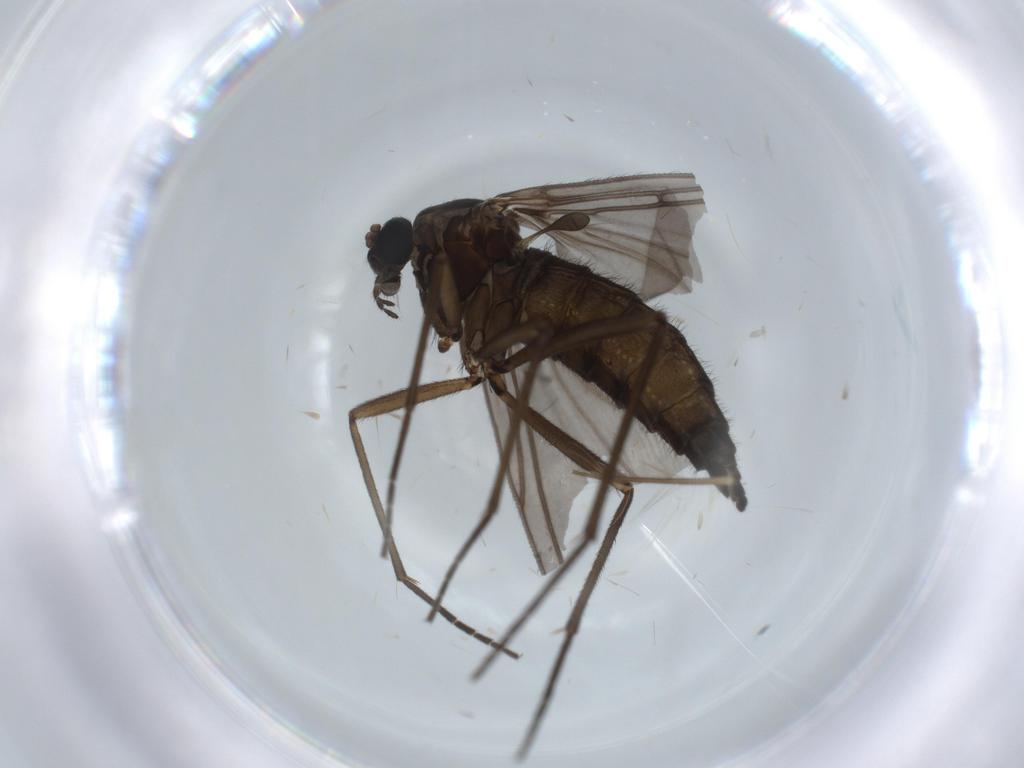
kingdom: Animalia
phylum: Arthropoda
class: Insecta
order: Diptera
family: Sciaridae
